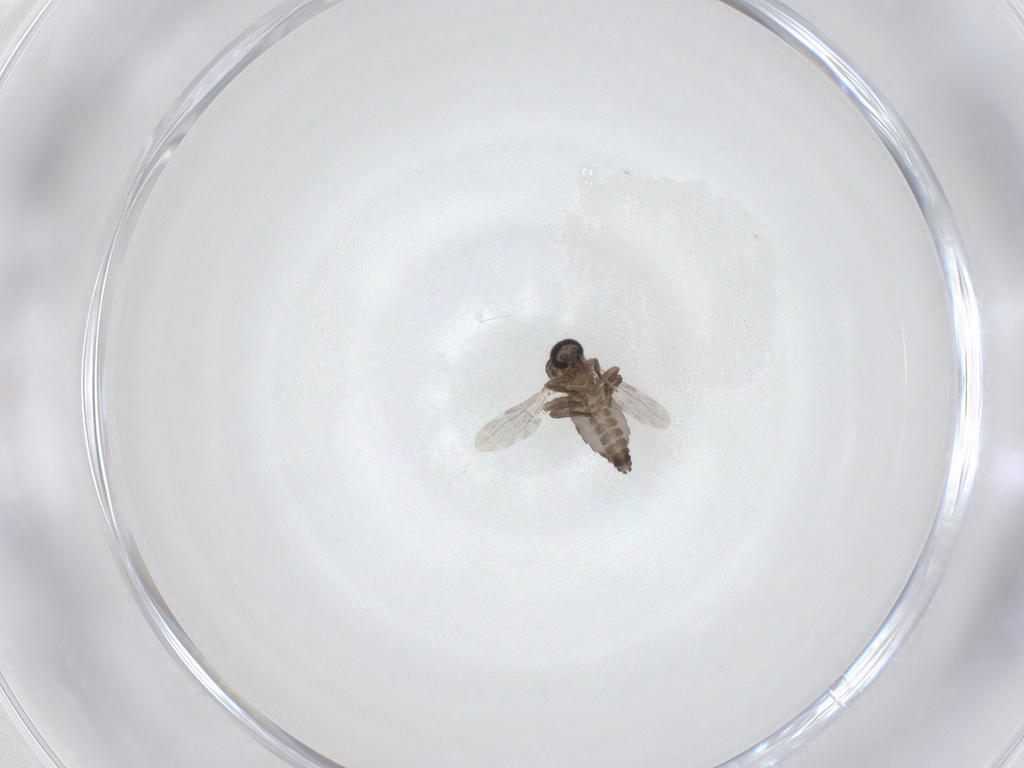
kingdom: Animalia
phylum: Arthropoda
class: Insecta
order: Diptera
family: Ceratopogonidae
